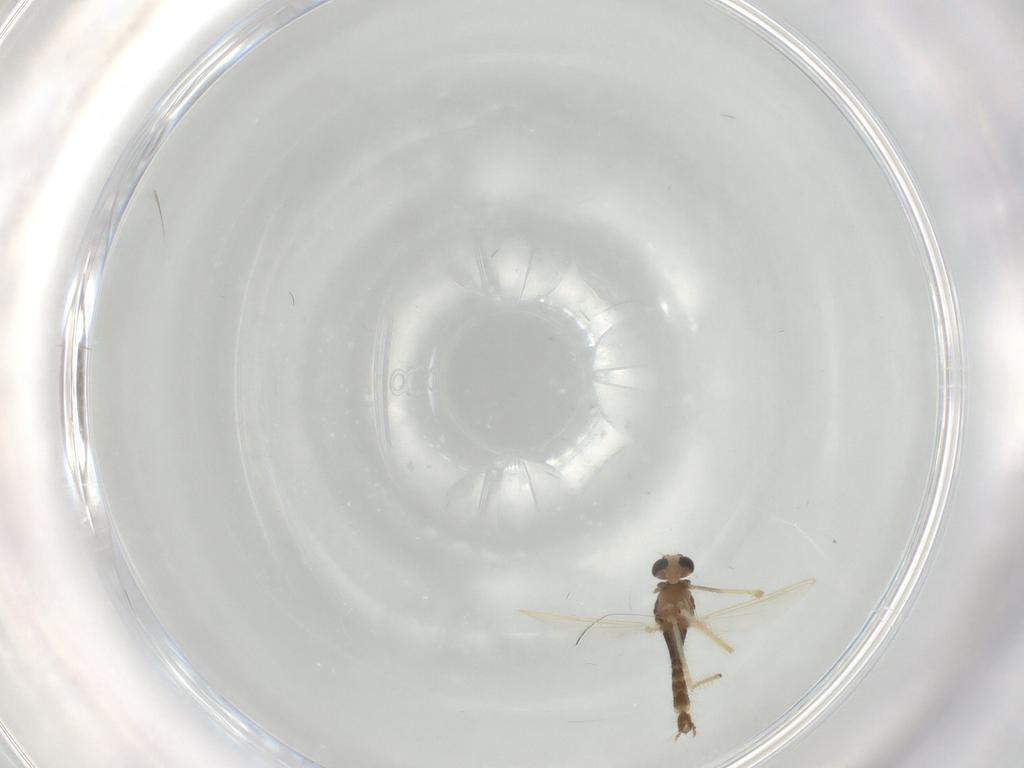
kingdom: Animalia
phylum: Arthropoda
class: Insecta
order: Diptera
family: Chironomidae
